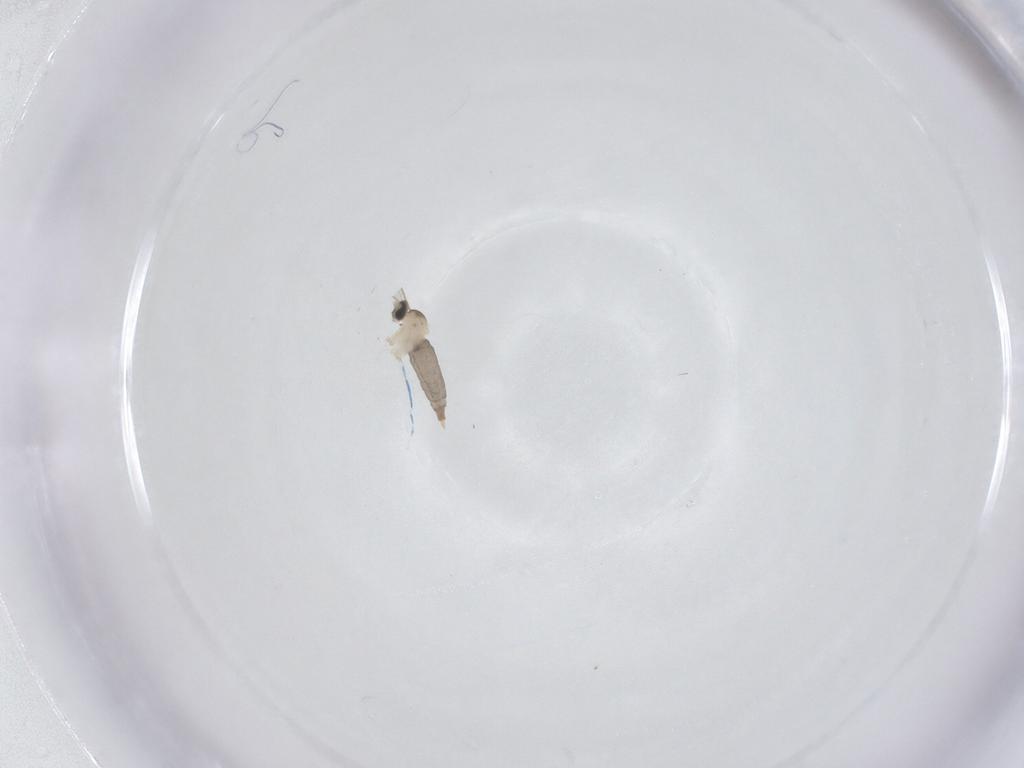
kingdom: Animalia
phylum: Arthropoda
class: Insecta
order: Diptera
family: Cecidomyiidae
